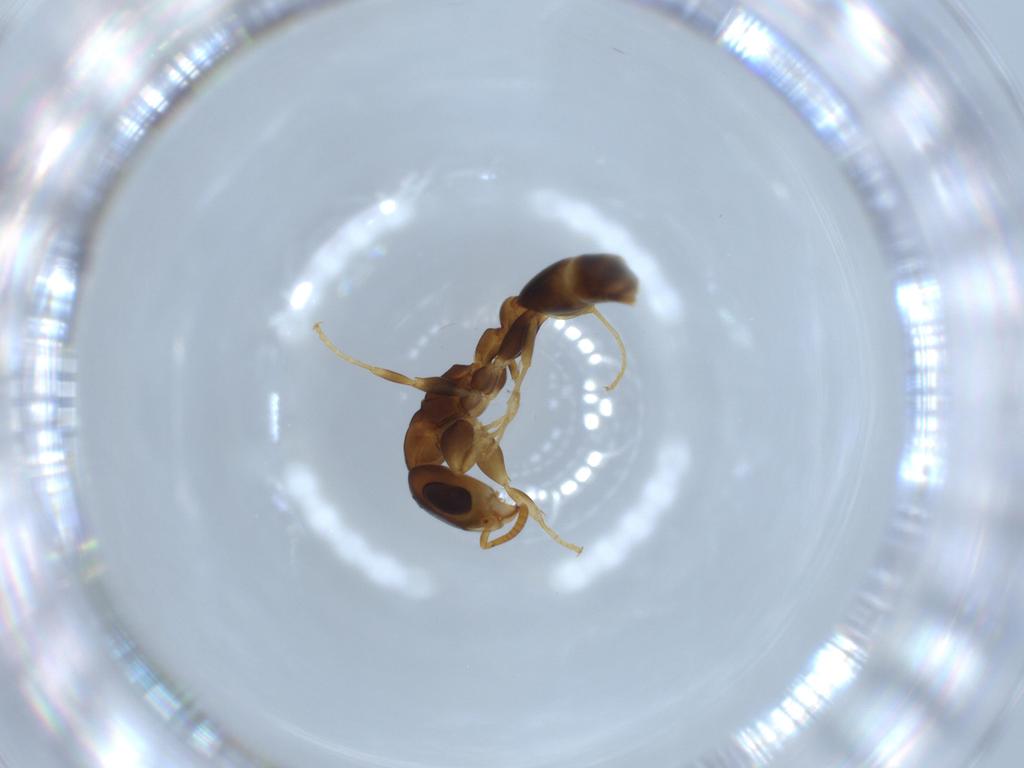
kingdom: Animalia
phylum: Arthropoda
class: Insecta
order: Hymenoptera
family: Formicidae
